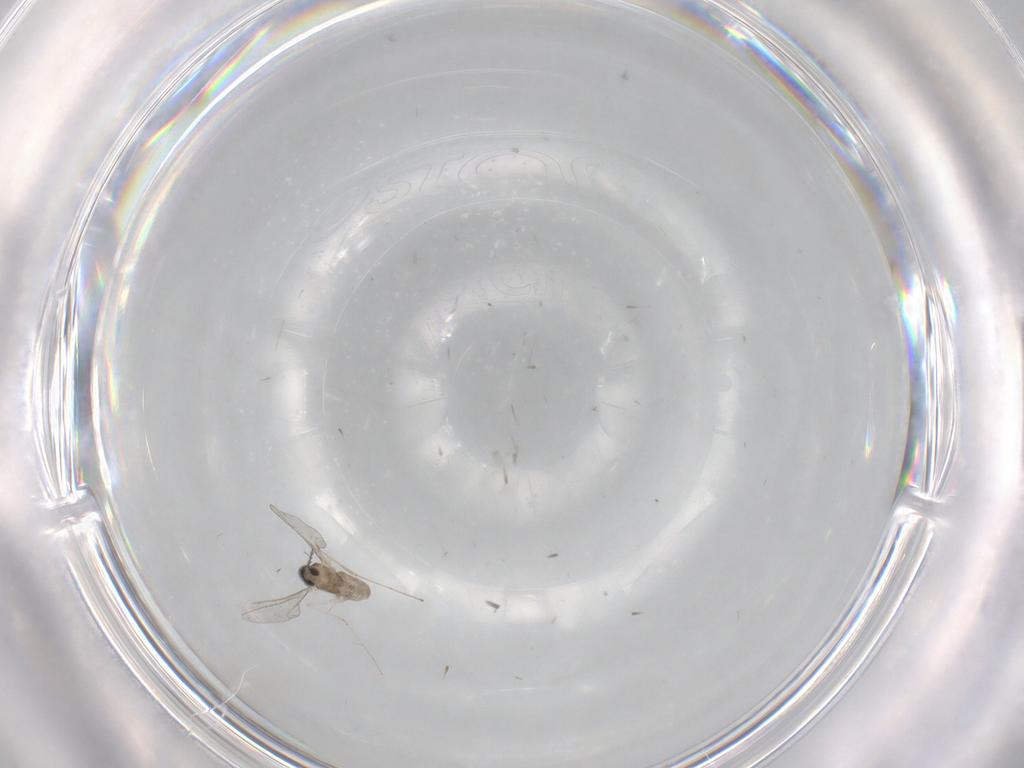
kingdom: Animalia
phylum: Arthropoda
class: Insecta
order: Diptera
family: Cecidomyiidae
